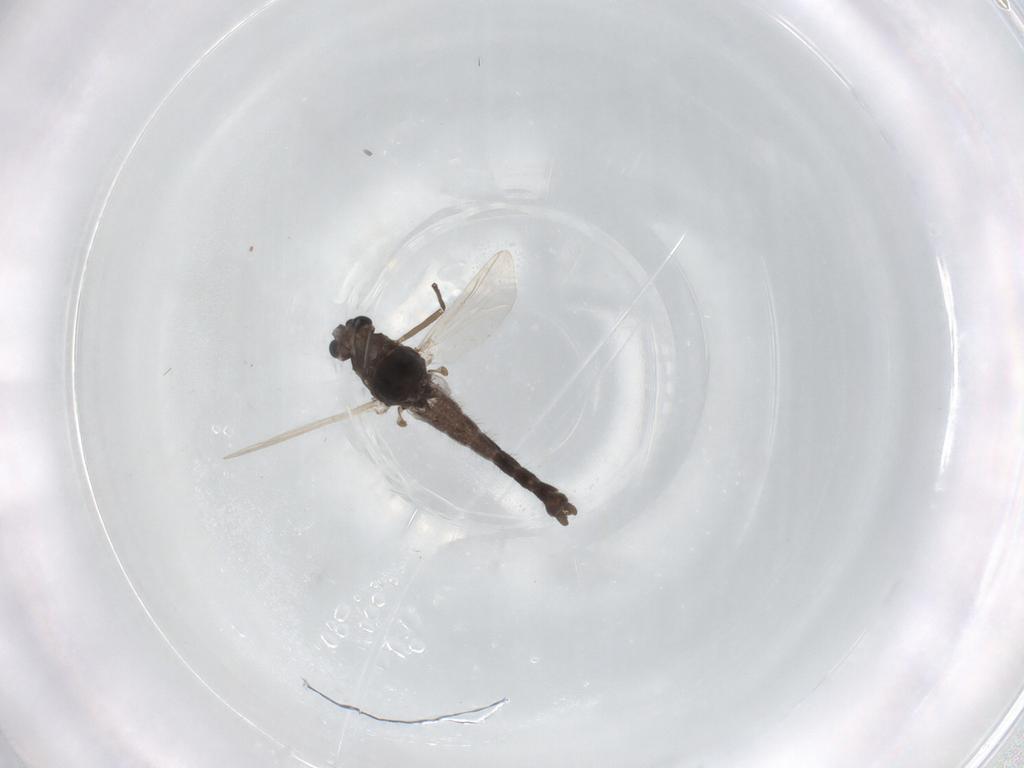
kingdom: Animalia
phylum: Arthropoda
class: Insecta
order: Diptera
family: Chironomidae
